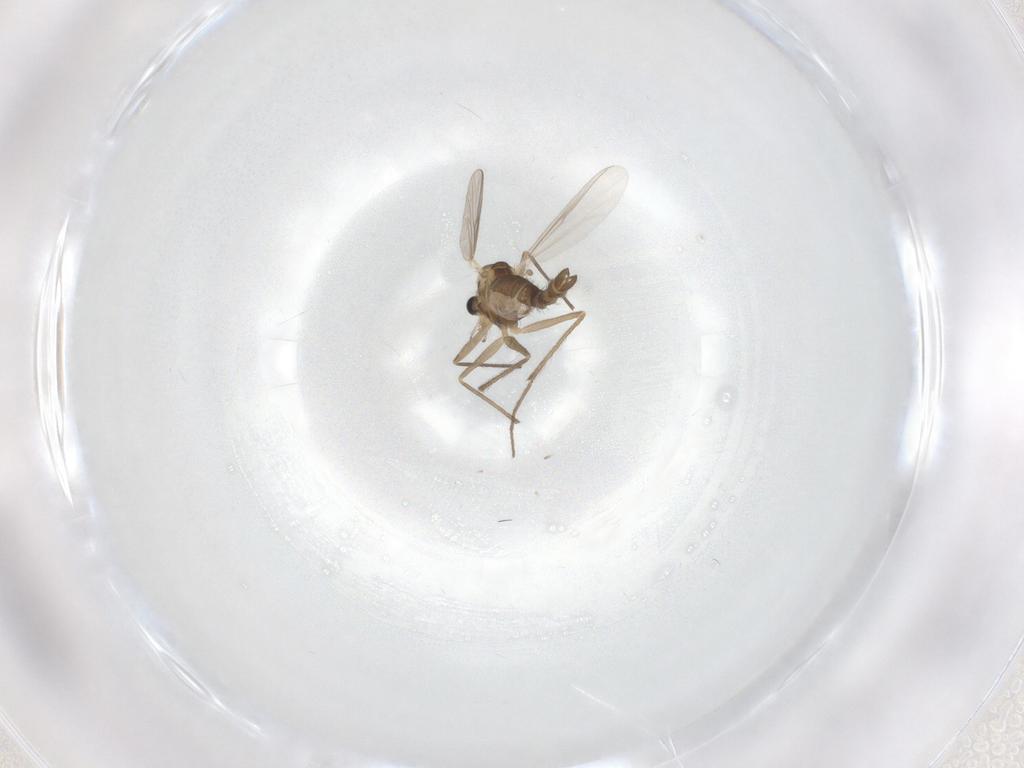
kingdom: Animalia
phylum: Arthropoda
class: Insecta
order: Diptera
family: Chironomidae
